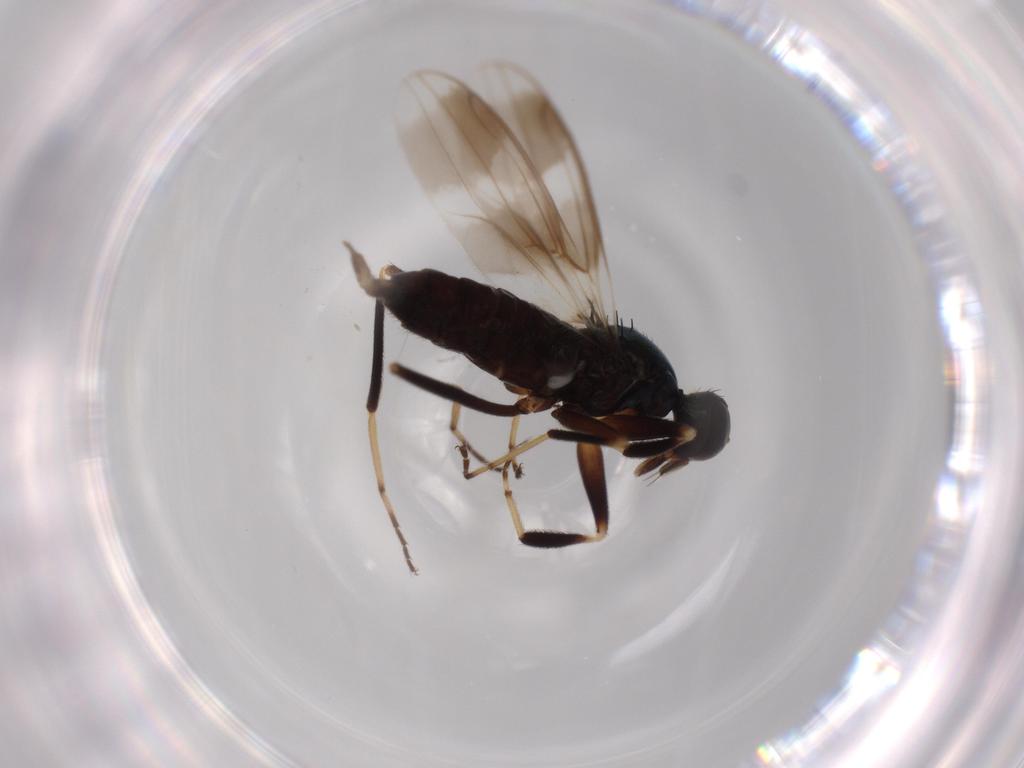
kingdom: Animalia
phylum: Arthropoda
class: Insecta
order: Diptera
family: Hybotidae
